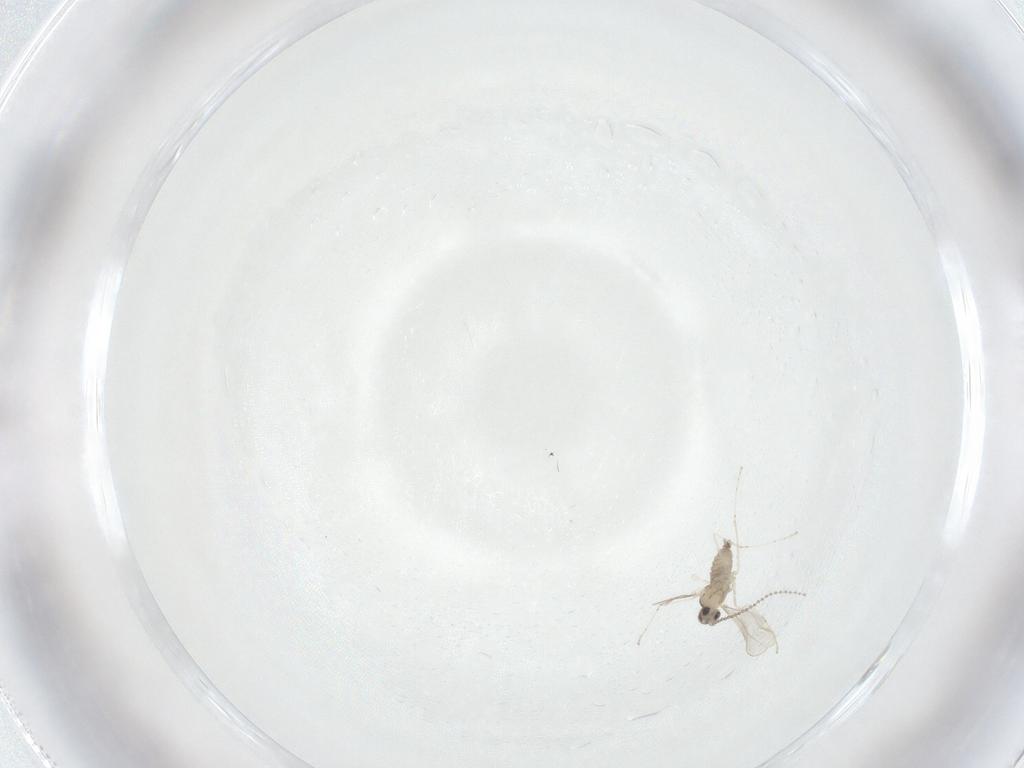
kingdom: Animalia
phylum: Arthropoda
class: Insecta
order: Diptera
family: Cecidomyiidae
